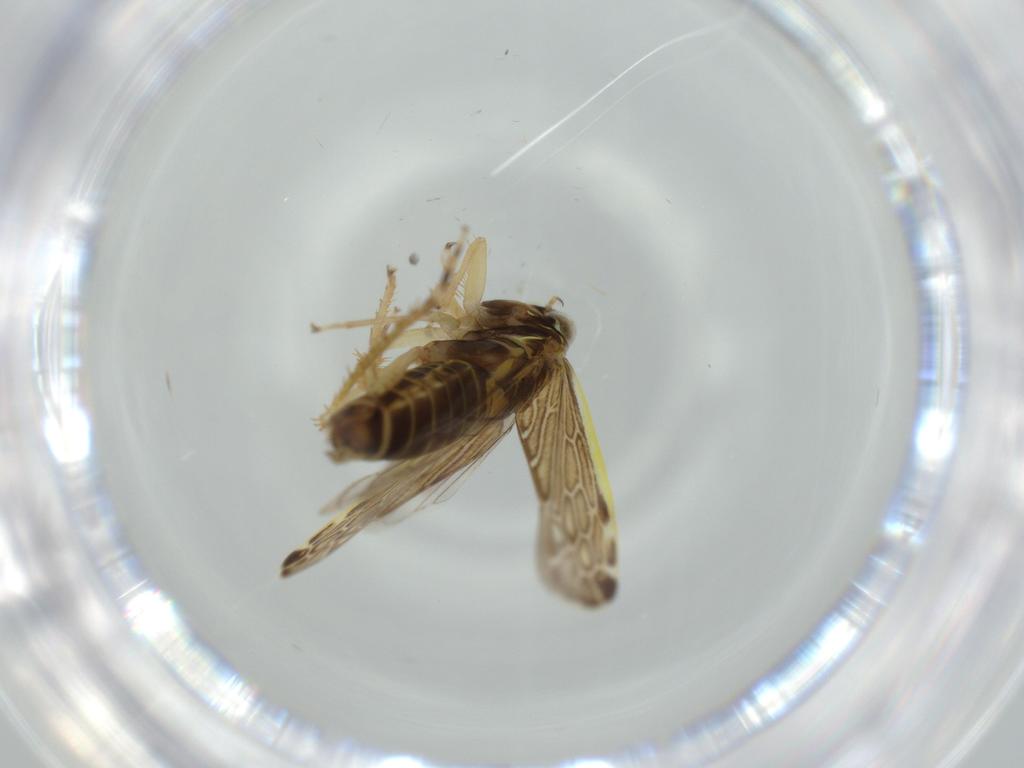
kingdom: Animalia
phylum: Arthropoda
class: Insecta
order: Hemiptera
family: Cicadellidae
